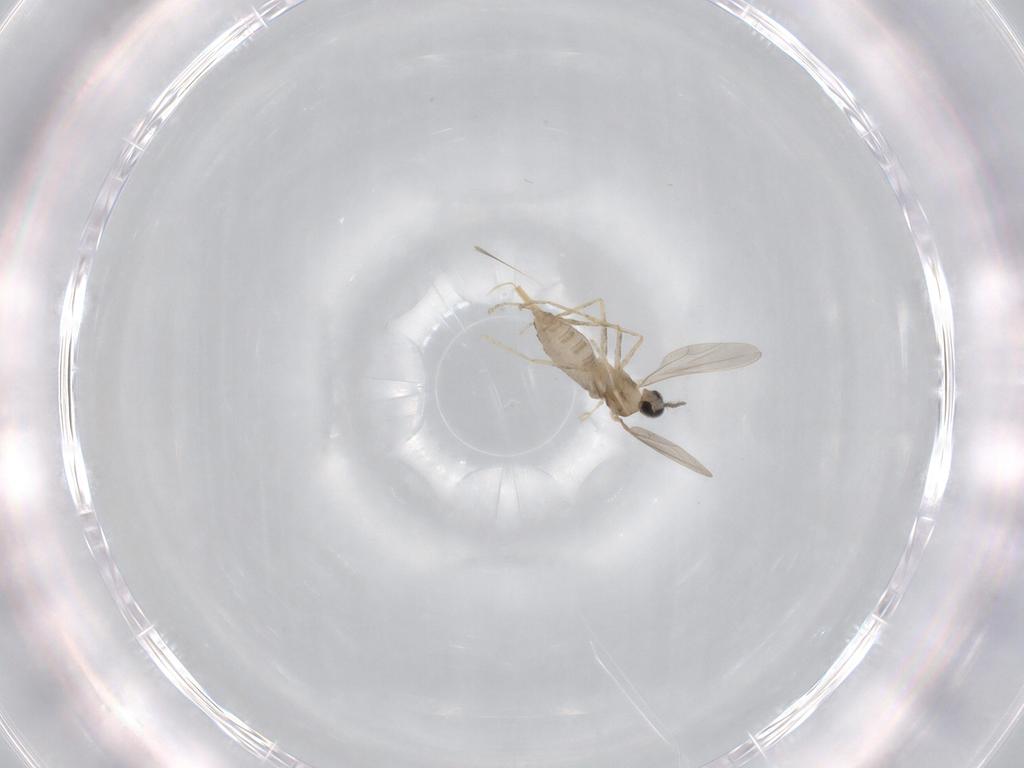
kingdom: Animalia
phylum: Arthropoda
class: Insecta
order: Diptera
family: Cecidomyiidae
